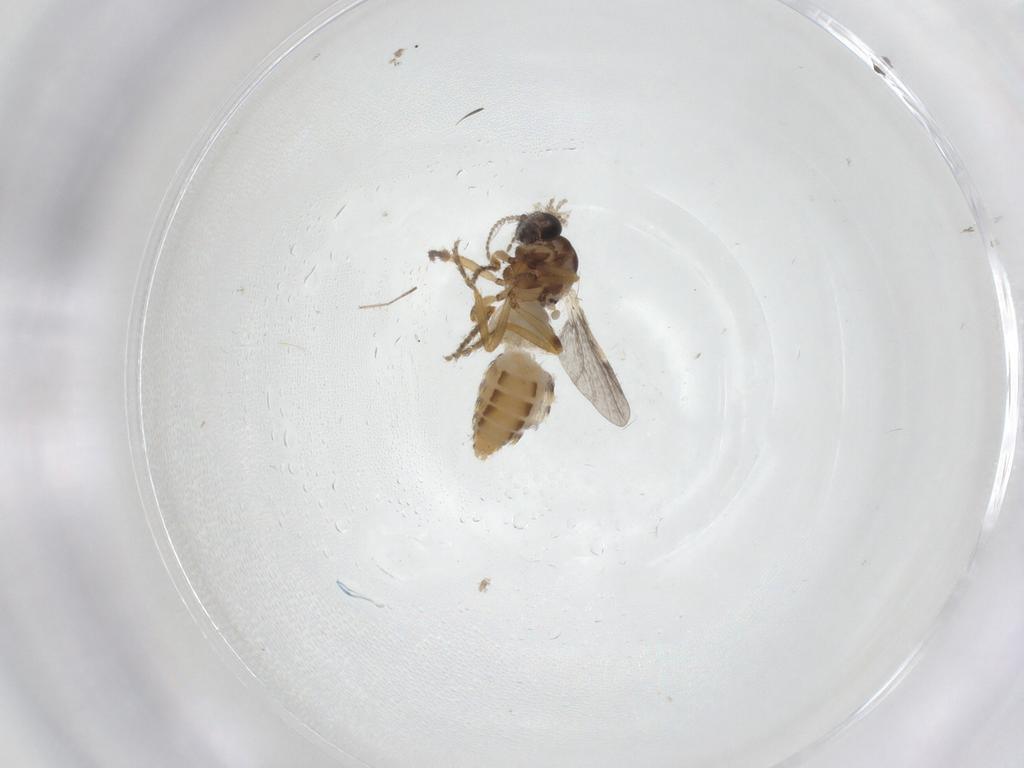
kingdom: Animalia
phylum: Arthropoda
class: Insecta
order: Diptera
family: Ceratopogonidae
